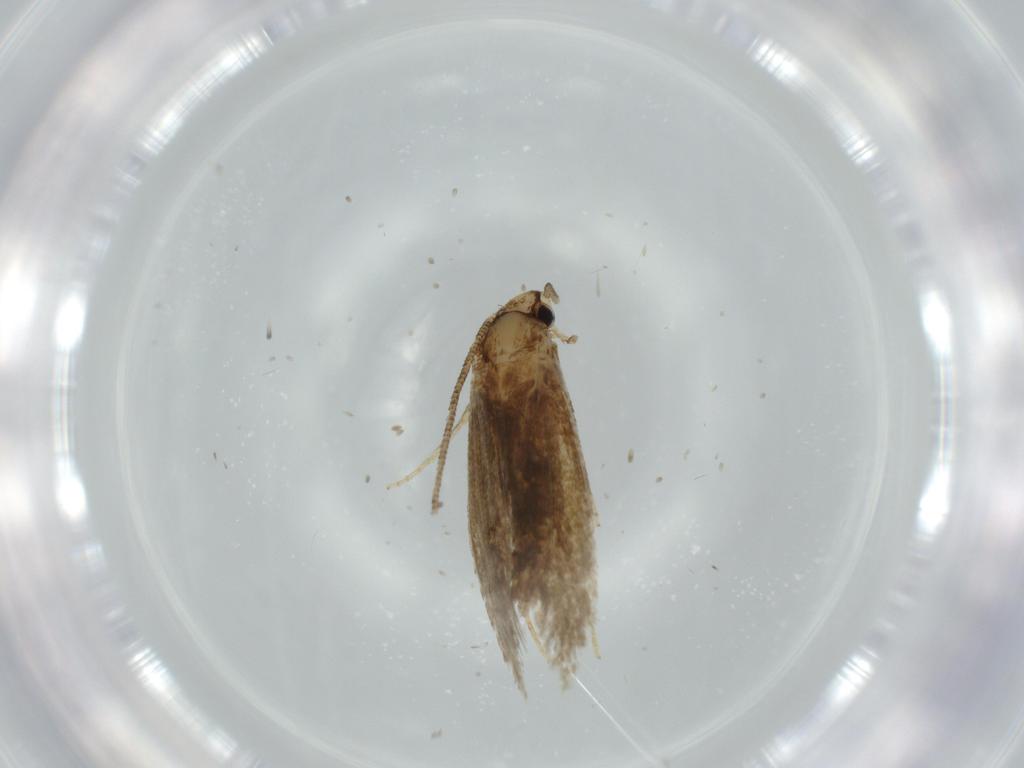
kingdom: Animalia
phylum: Arthropoda
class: Insecta
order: Lepidoptera
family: Tineidae
